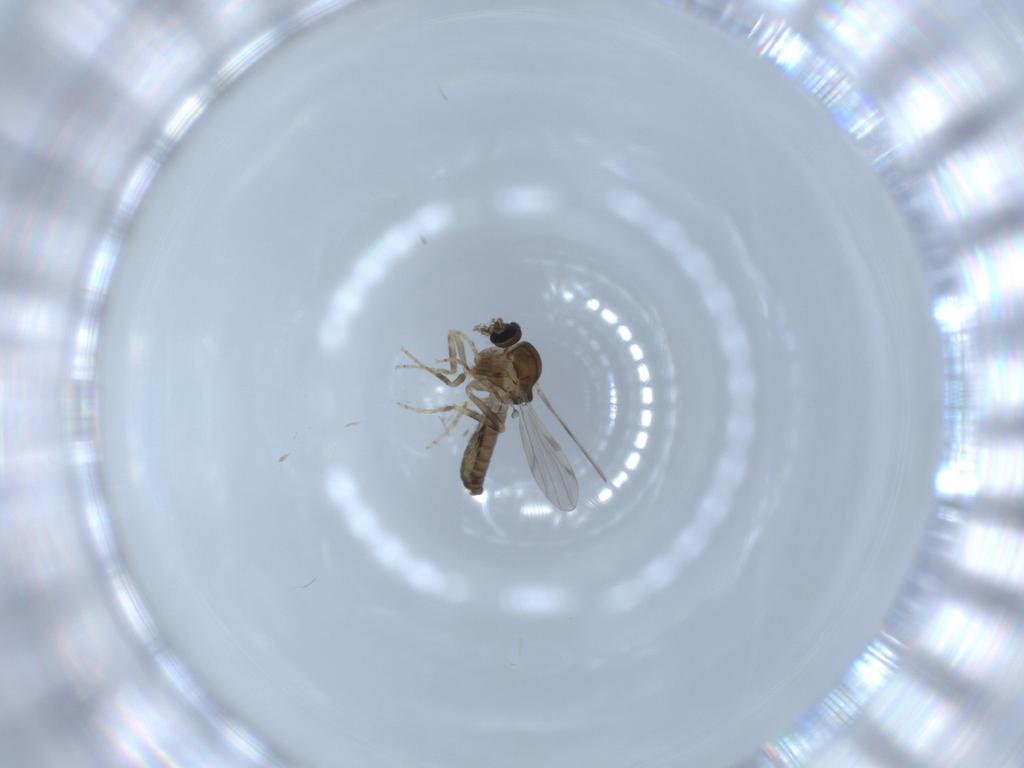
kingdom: Animalia
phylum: Arthropoda
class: Insecta
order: Diptera
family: Ceratopogonidae
